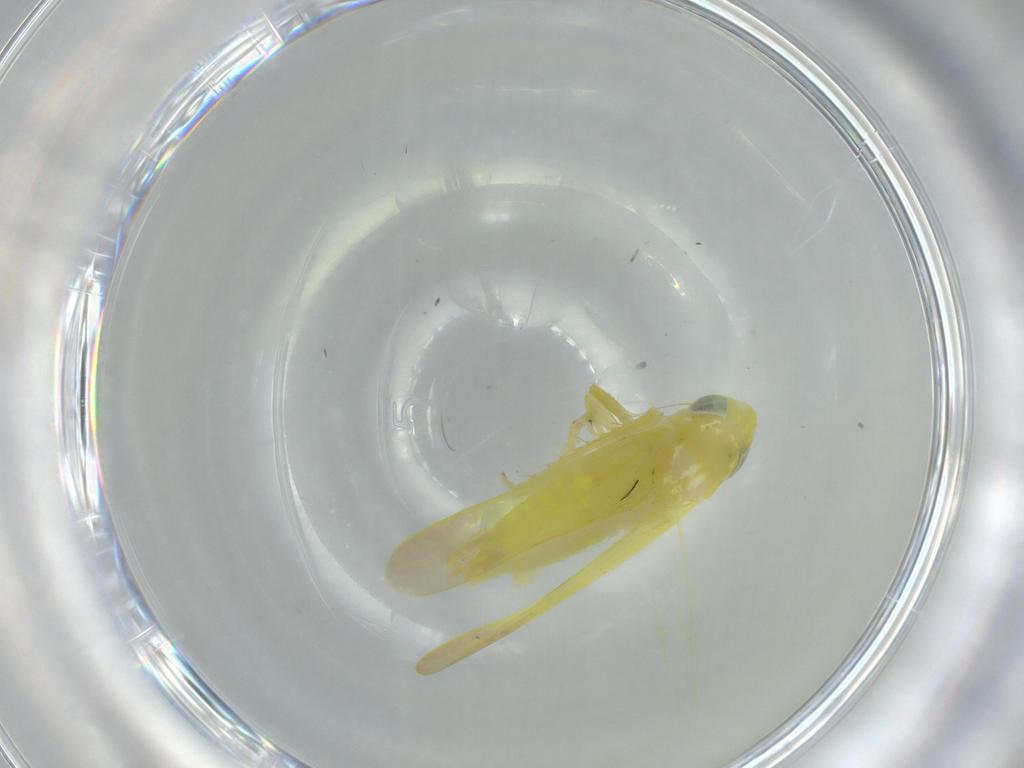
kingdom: Animalia
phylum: Arthropoda
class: Insecta
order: Hemiptera
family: Cicadellidae
